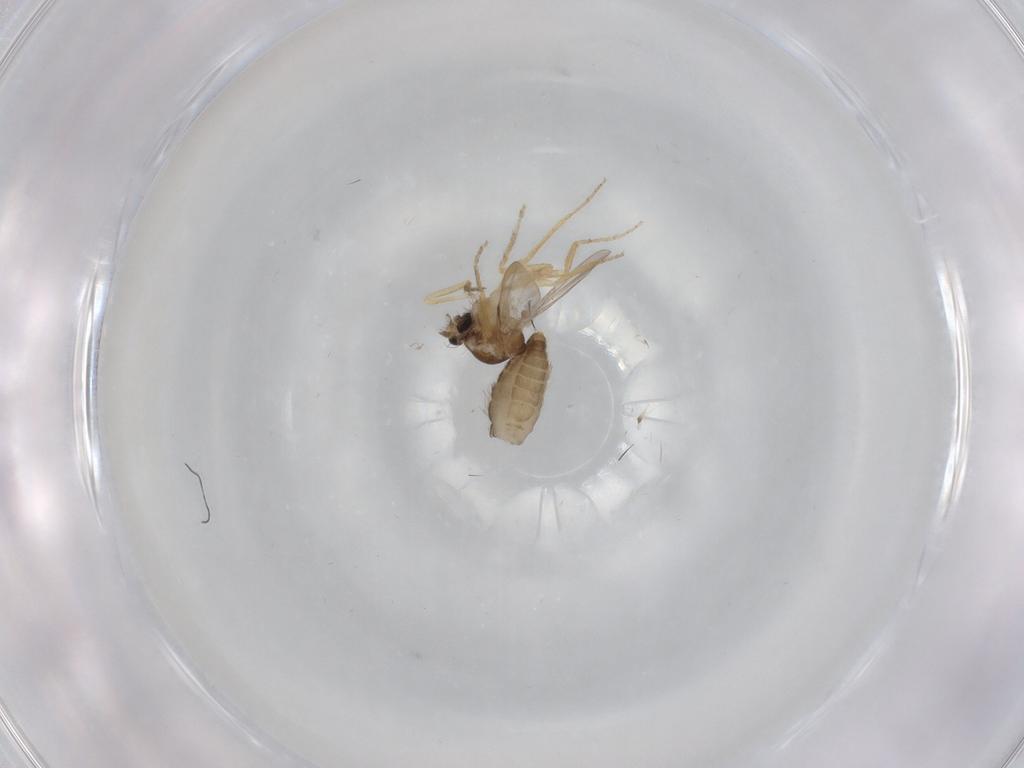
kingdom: Animalia
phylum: Arthropoda
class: Insecta
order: Diptera
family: Ceratopogonidae
